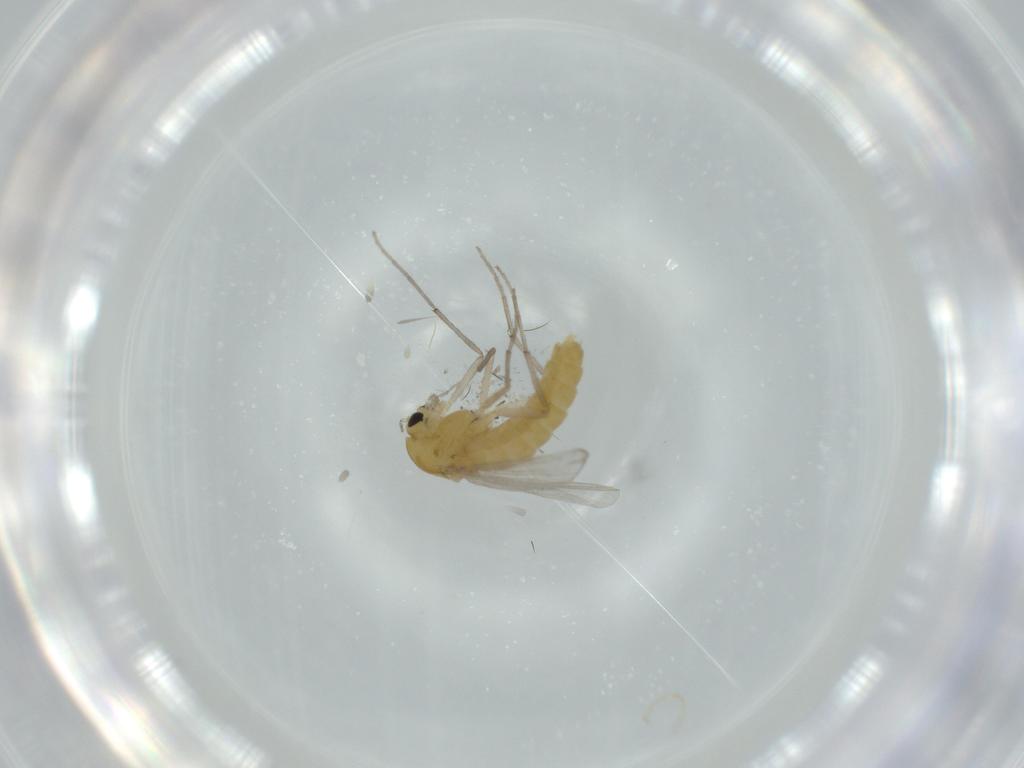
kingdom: Animalia
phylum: Arthropoda
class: Insecta
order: Diptera
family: Chironomidae
